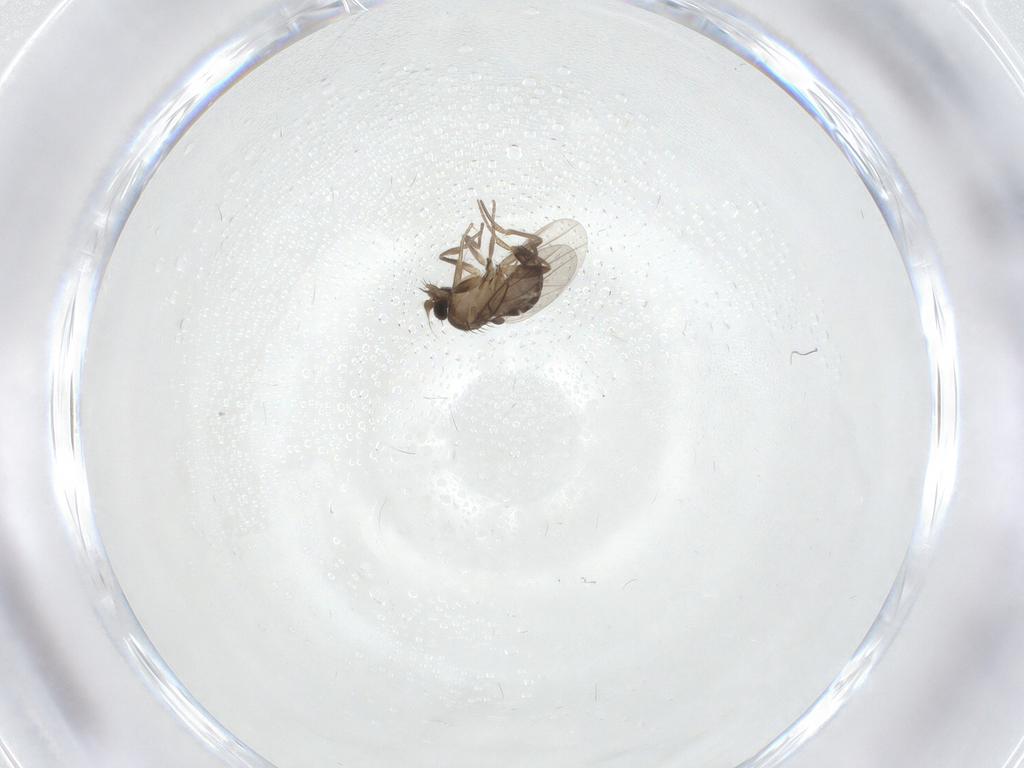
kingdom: Animalia
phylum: Arthropoda
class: Insecta
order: Diptera
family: Phoridae
